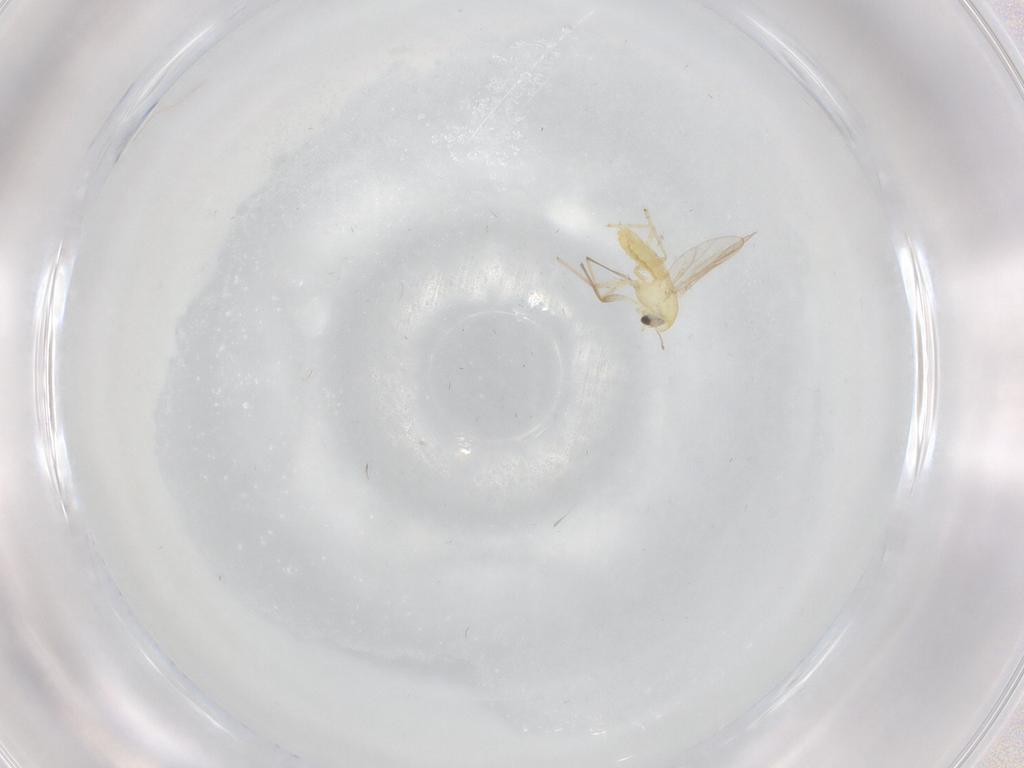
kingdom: Animalia
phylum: Arthropoda
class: Insecta
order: Diptera
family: Chironomidae
